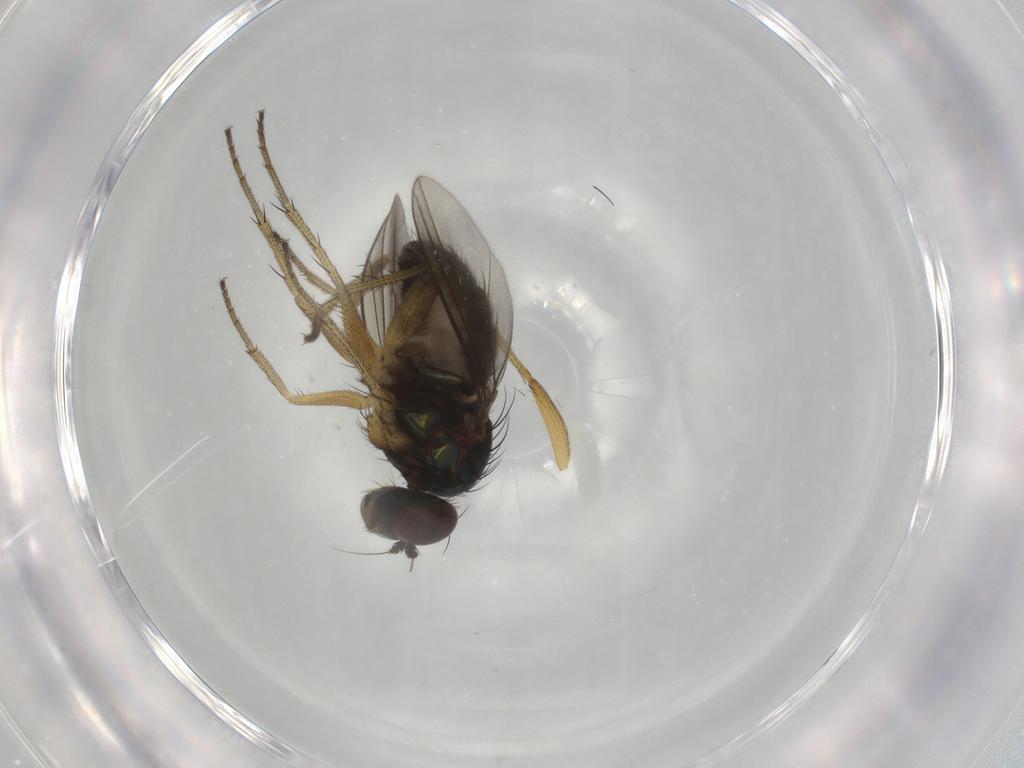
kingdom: Animalia
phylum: Arthropoda
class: Insecta
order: Diptera
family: Dolichopodidae
